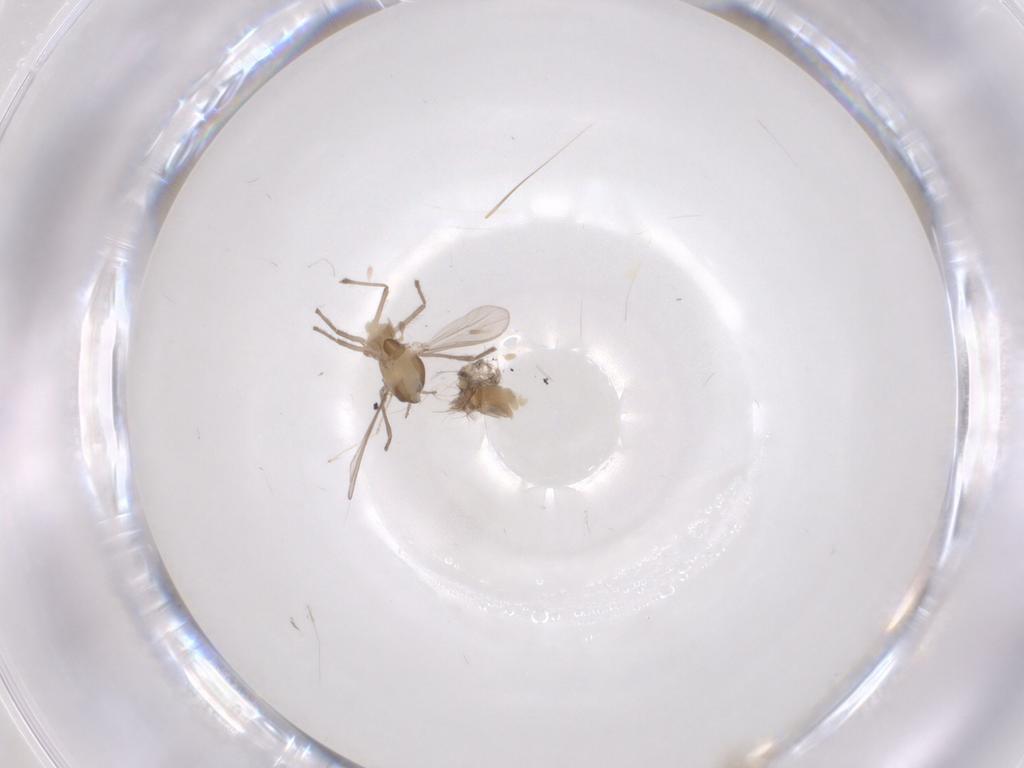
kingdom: Animalia
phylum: Arthropoda
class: Insecta
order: Diptera
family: Chironomidae
